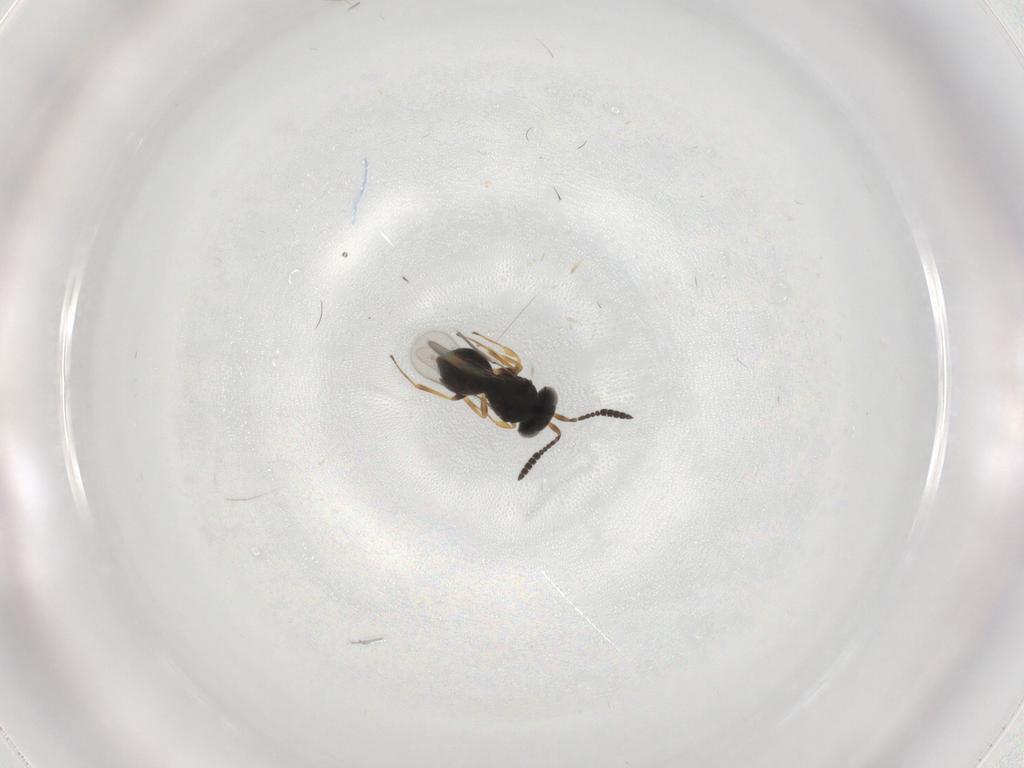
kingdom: Animalia
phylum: Arthropoda
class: Insecta
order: Hymenoptera
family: Scelionidae
